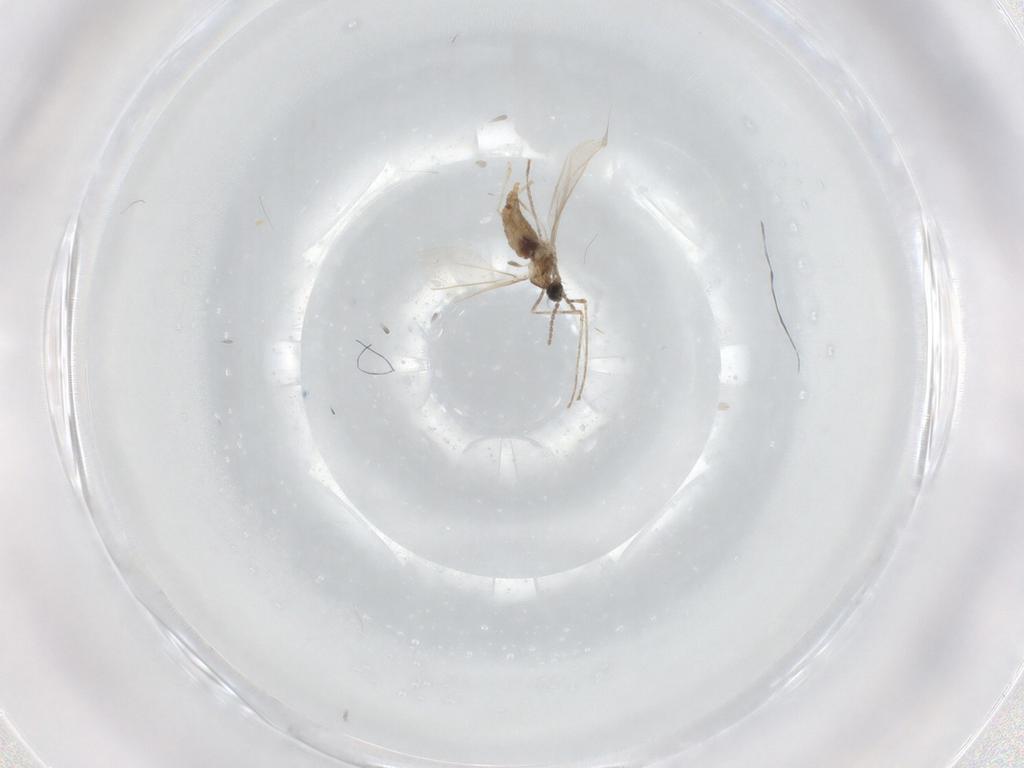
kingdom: Animalia
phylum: Arthropoda
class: Insecta
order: Diptera
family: Cecidomyiidae
